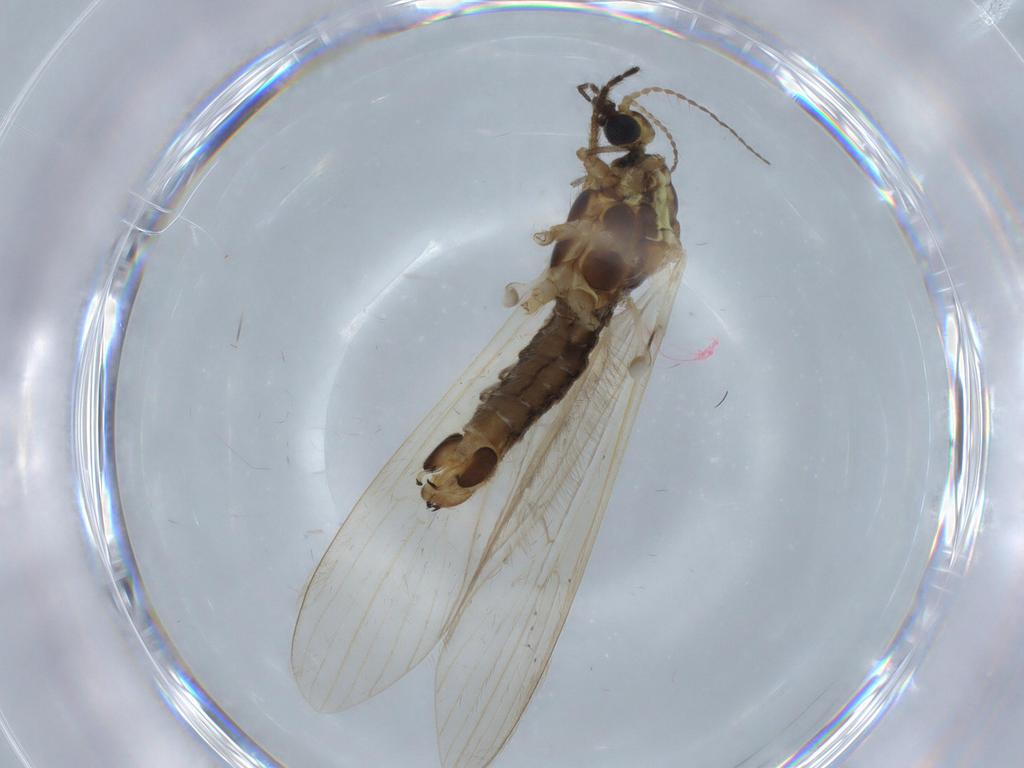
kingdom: Animalia
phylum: Arthropoda
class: Insecta
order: Diptera
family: Limoniidae
